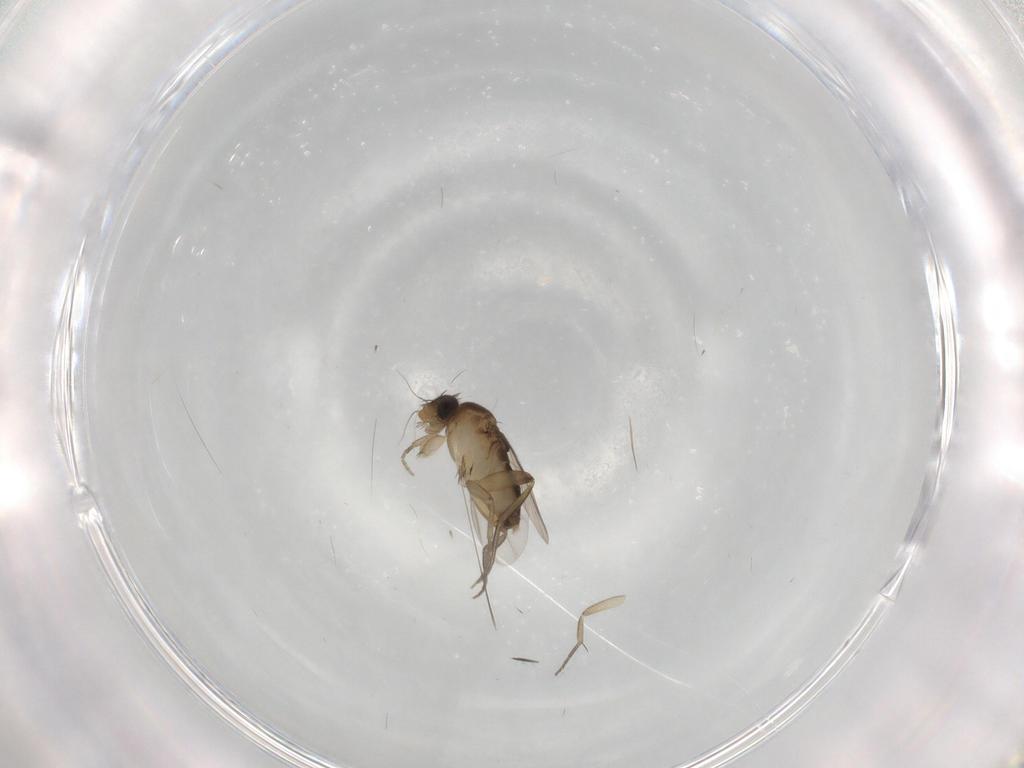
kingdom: Animalia
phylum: Arthropoda
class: Insecta
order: Diptera
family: Phoridae
